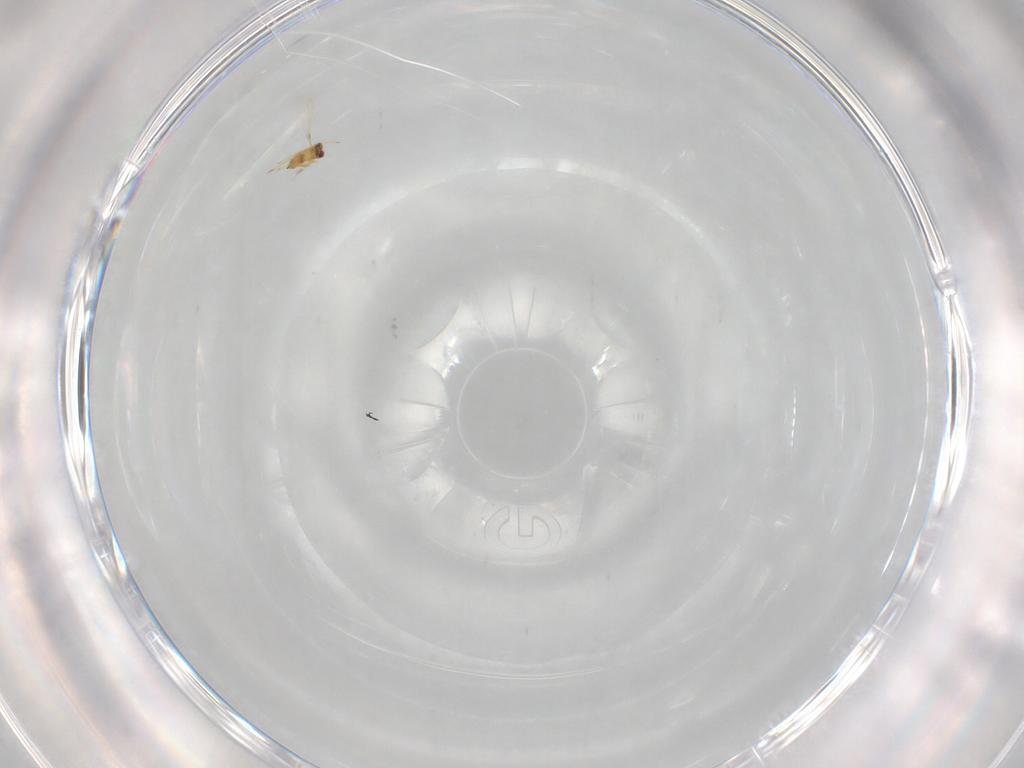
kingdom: Animalia
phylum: Arthropoda
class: Insecta
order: Hymenoptera
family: Mymaridae
